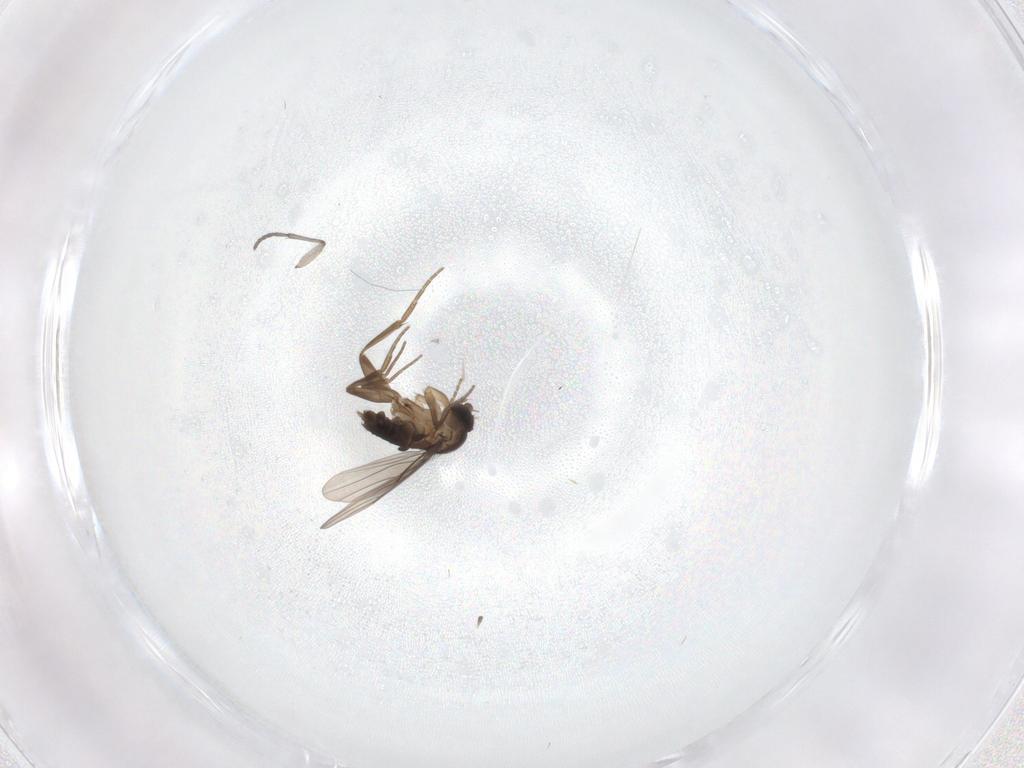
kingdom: Animalia
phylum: Arthropoda
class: Insecta
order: Diptera
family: Sciaridae
